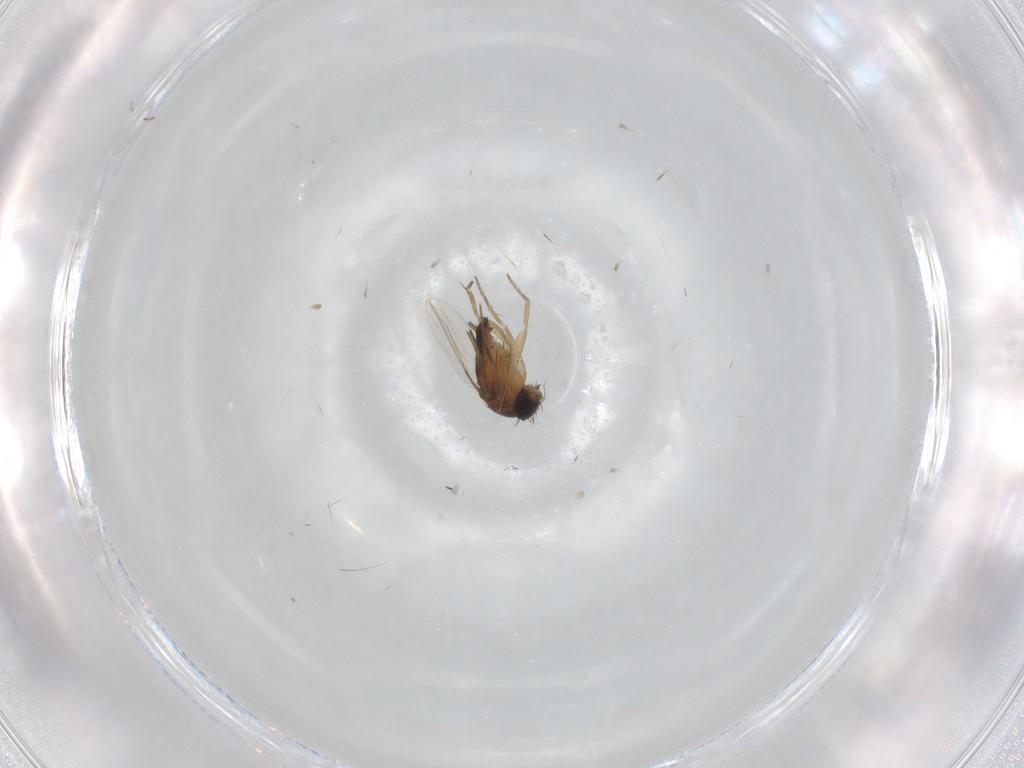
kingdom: Animalia
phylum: Arthropoda
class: Insecta
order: Diptera
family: Phoridae
